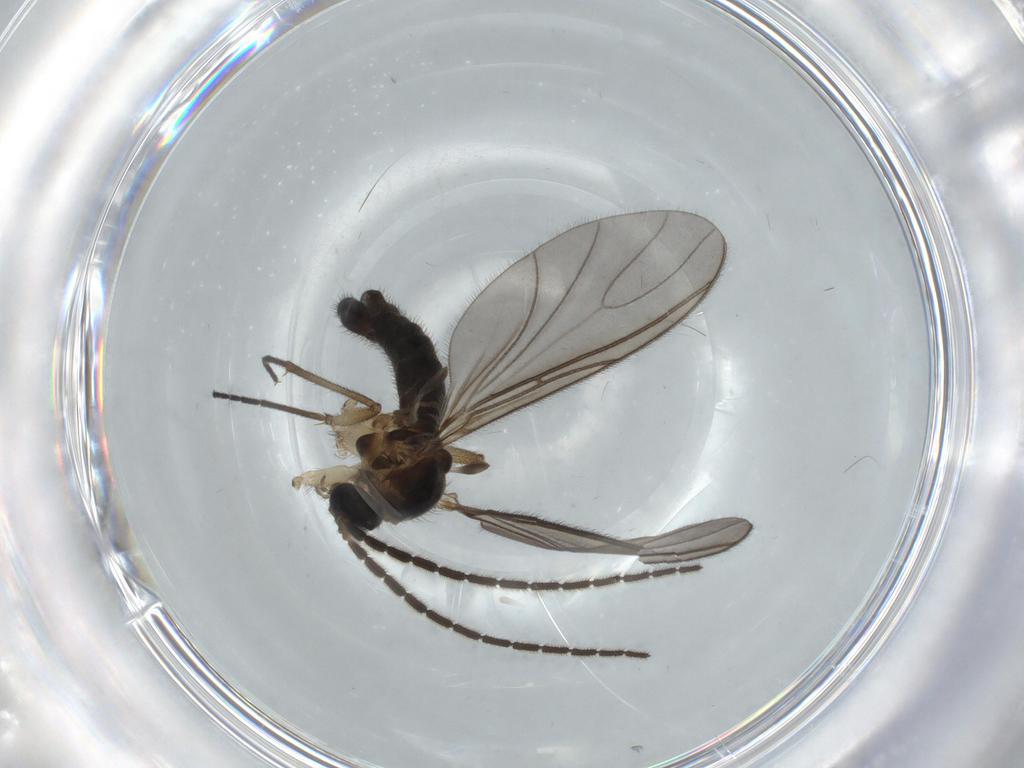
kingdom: Animalia
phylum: Arthropoda
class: Insecta
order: Diptera
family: Sciaridae
